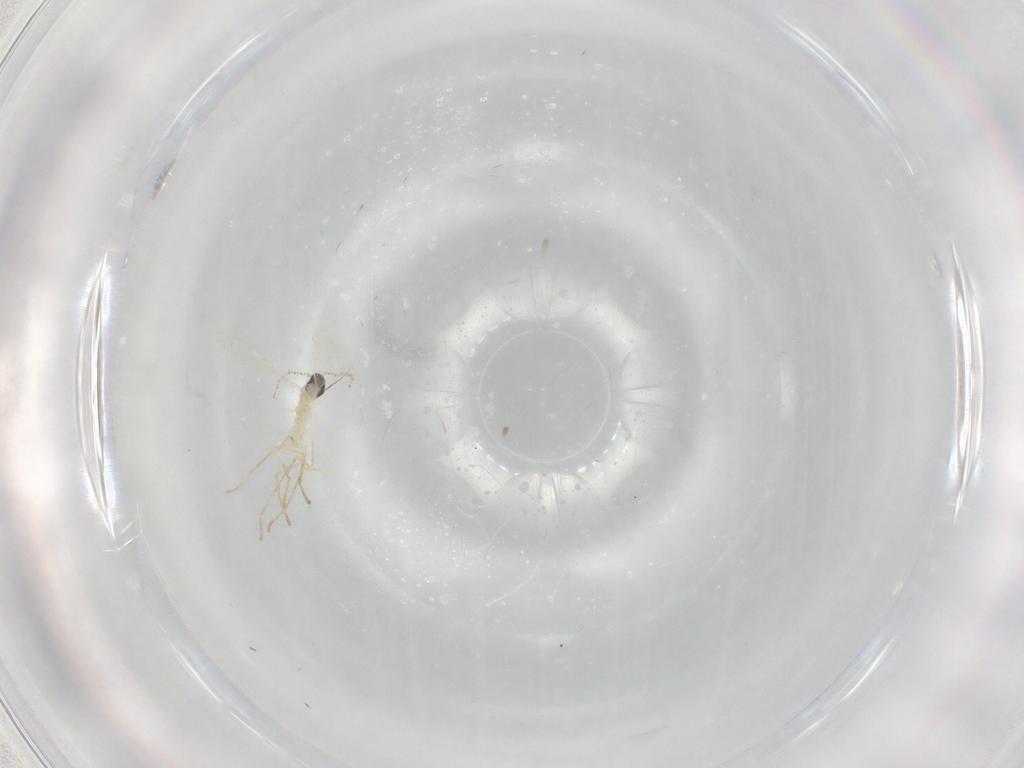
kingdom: Animalia
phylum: Arthropoda
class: Insecta
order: Diptera
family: Cecidomyiidae
